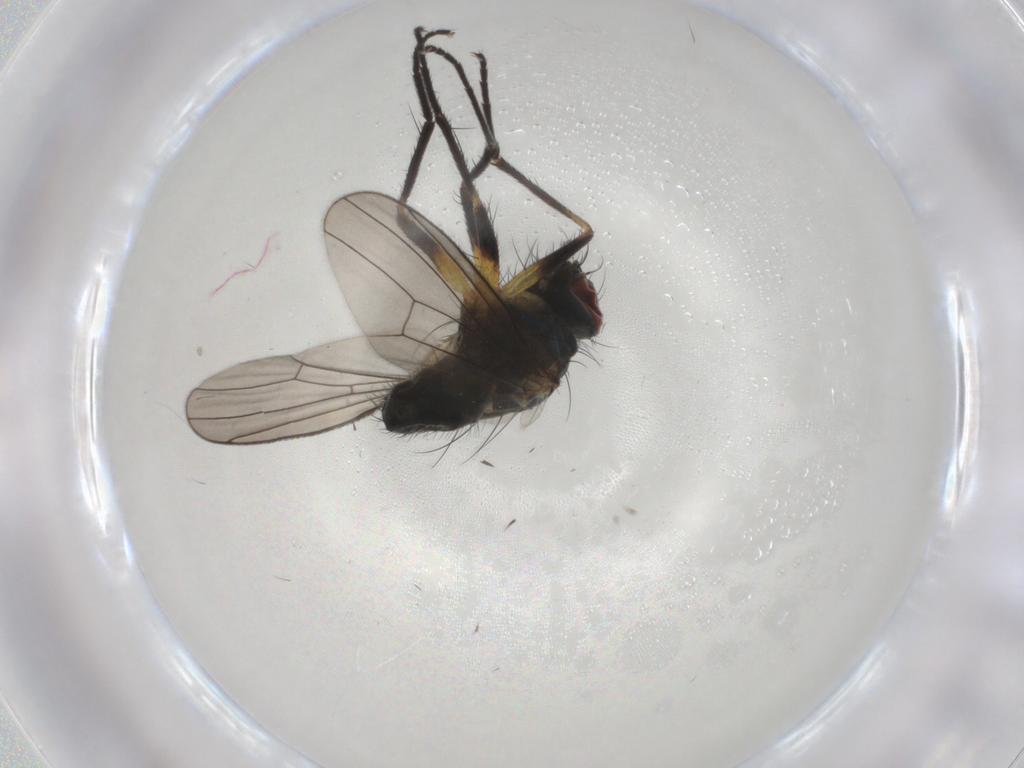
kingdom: Animalia
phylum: Arthropoda
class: Insecta
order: Diptera
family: Muscidae
